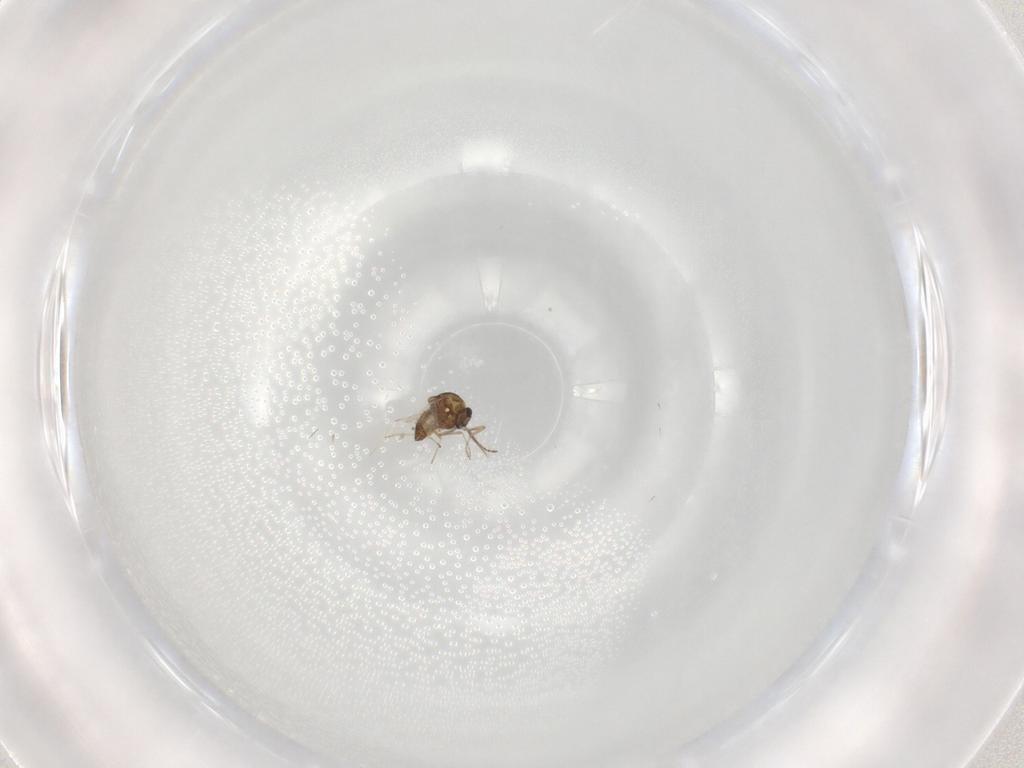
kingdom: Animalia
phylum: Arthropoda
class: Insecta
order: Diptera
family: Ceratopogonidae
